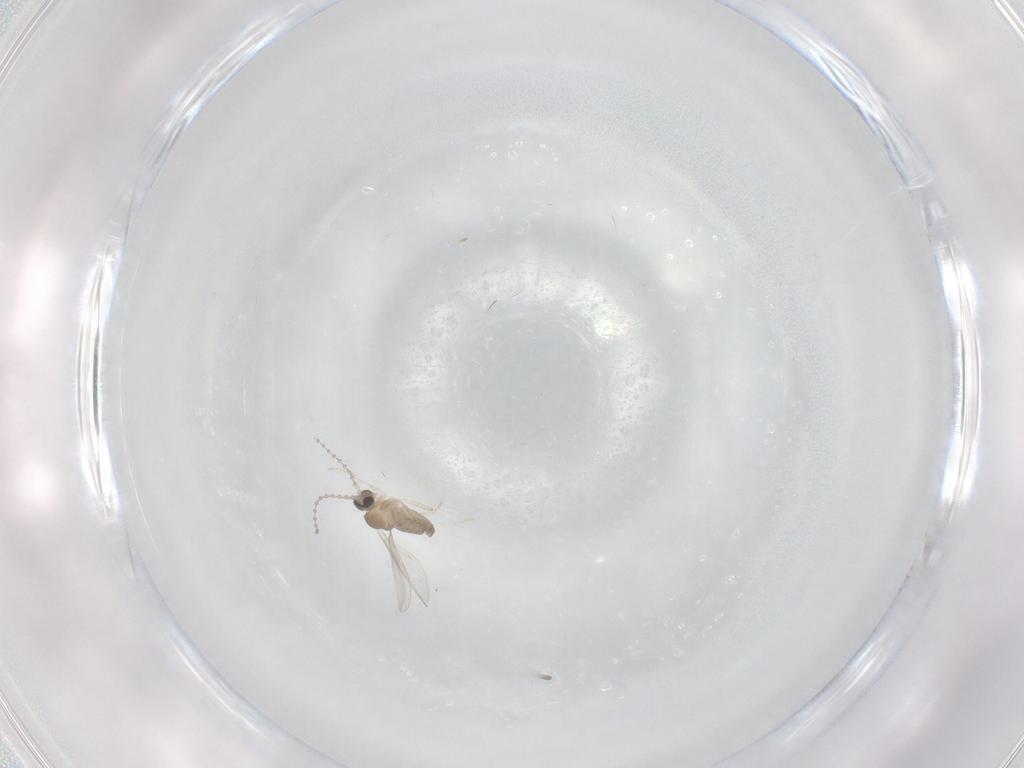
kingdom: Animalia
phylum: Arthropoda
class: Insecta
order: Diptera
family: Cecidomyiidae
